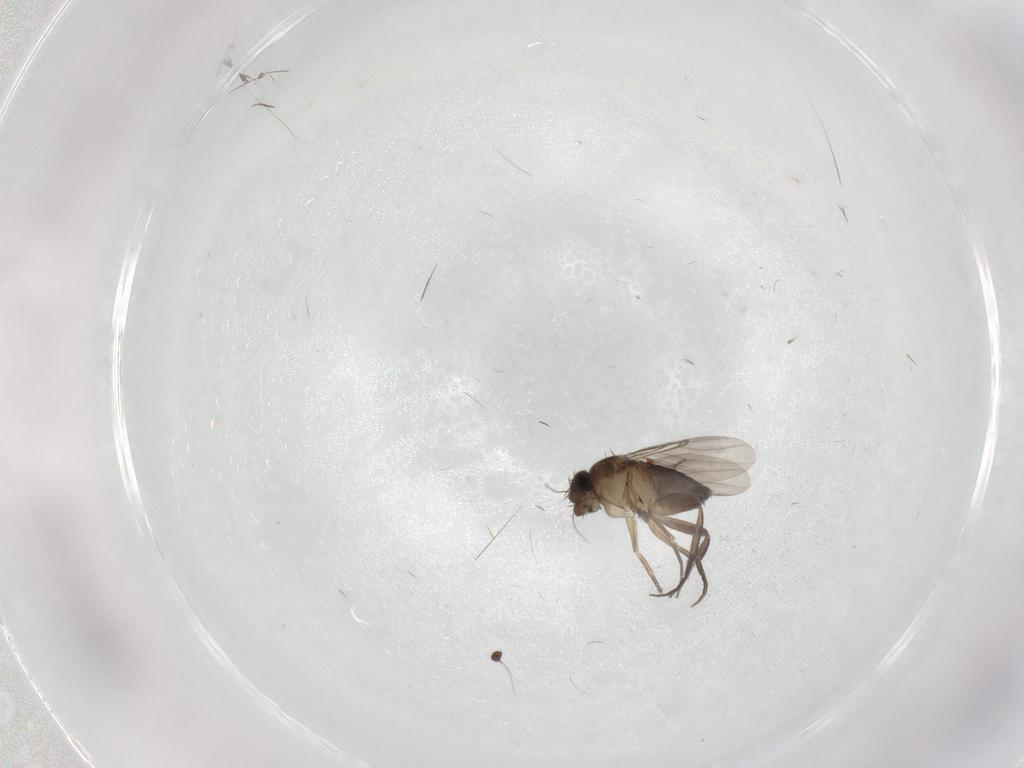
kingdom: Animalia
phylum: Arthropoda
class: Insecta
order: Diptera
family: Phoridae
